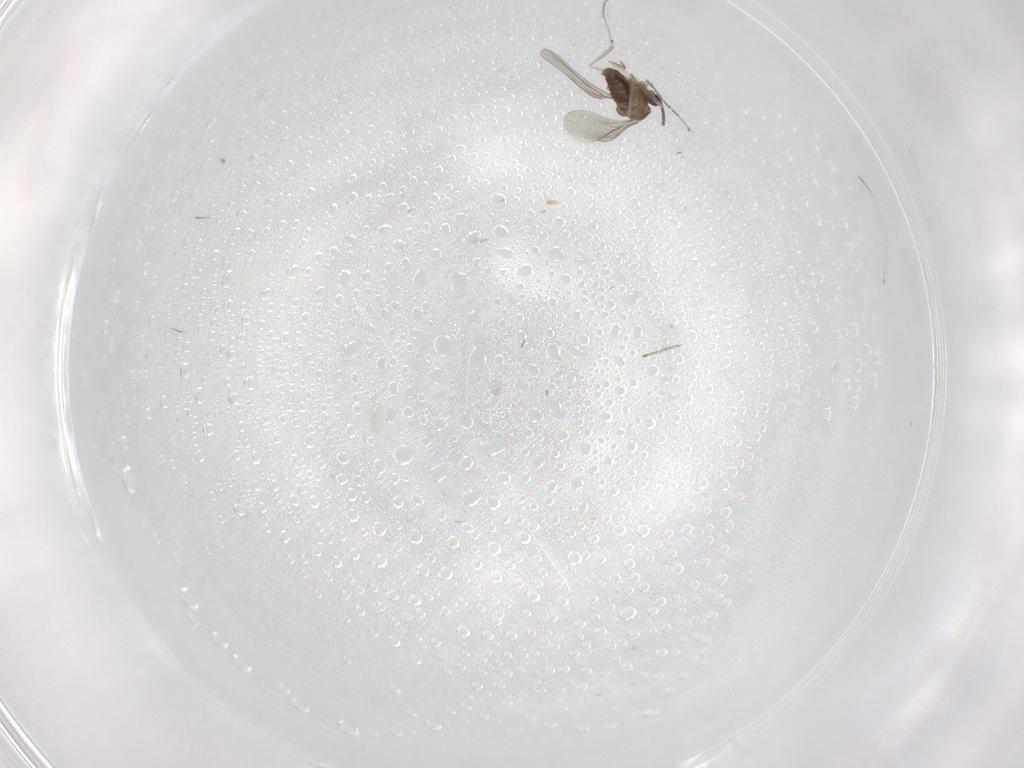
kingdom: Animalia
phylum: Arthropoda
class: Insecta
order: Diptera
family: Cecidomyiidae
